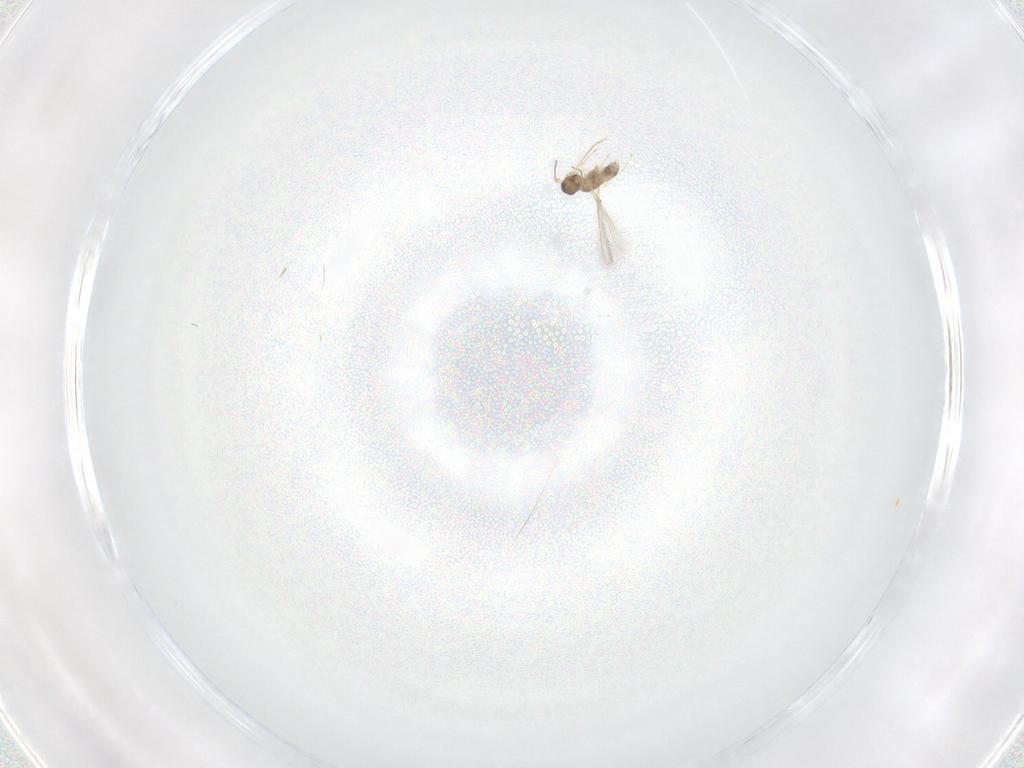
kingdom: Animalia
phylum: Arthropoda
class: Insecta
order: Hymenoptera
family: Mymaridae
